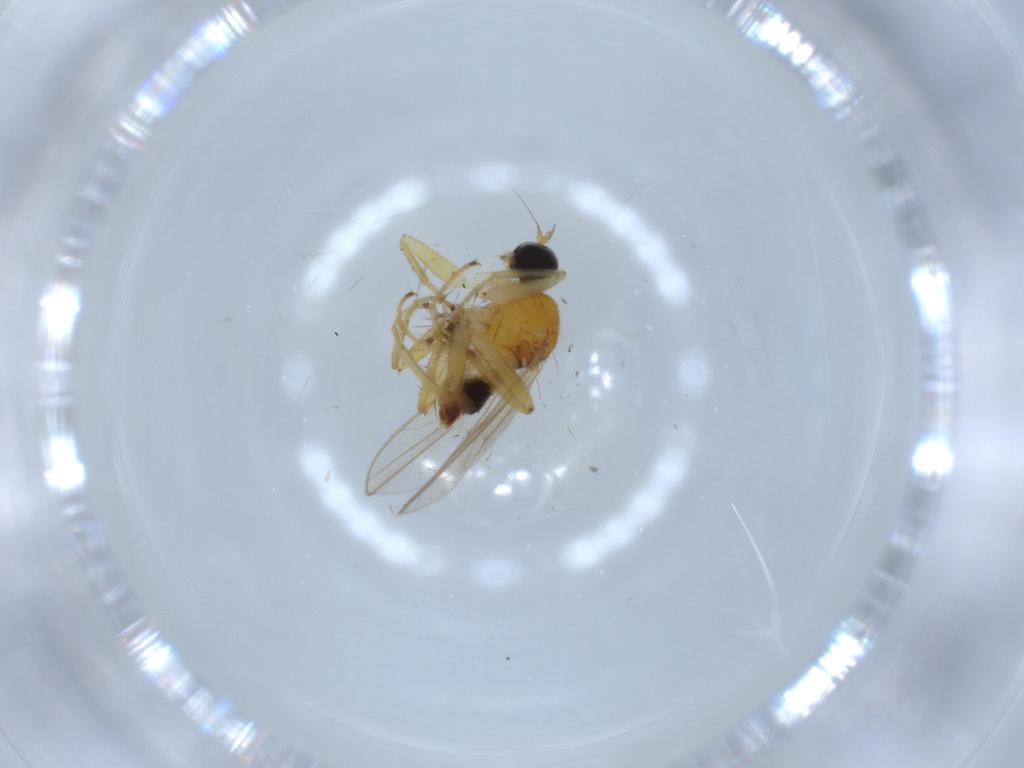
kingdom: Animalia
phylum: Arthropoda
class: Insecta
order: Diptera
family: Hybotidae
